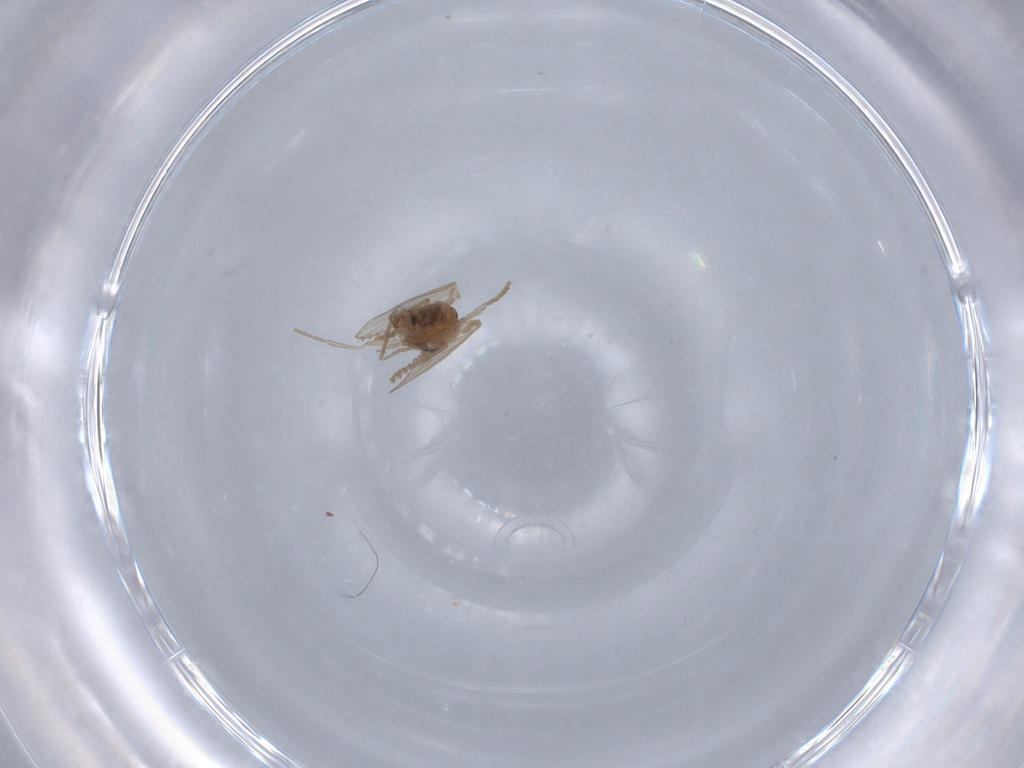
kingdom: Animalia
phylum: Arthropoda
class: Insecta
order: Diptera
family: Psychodidae
